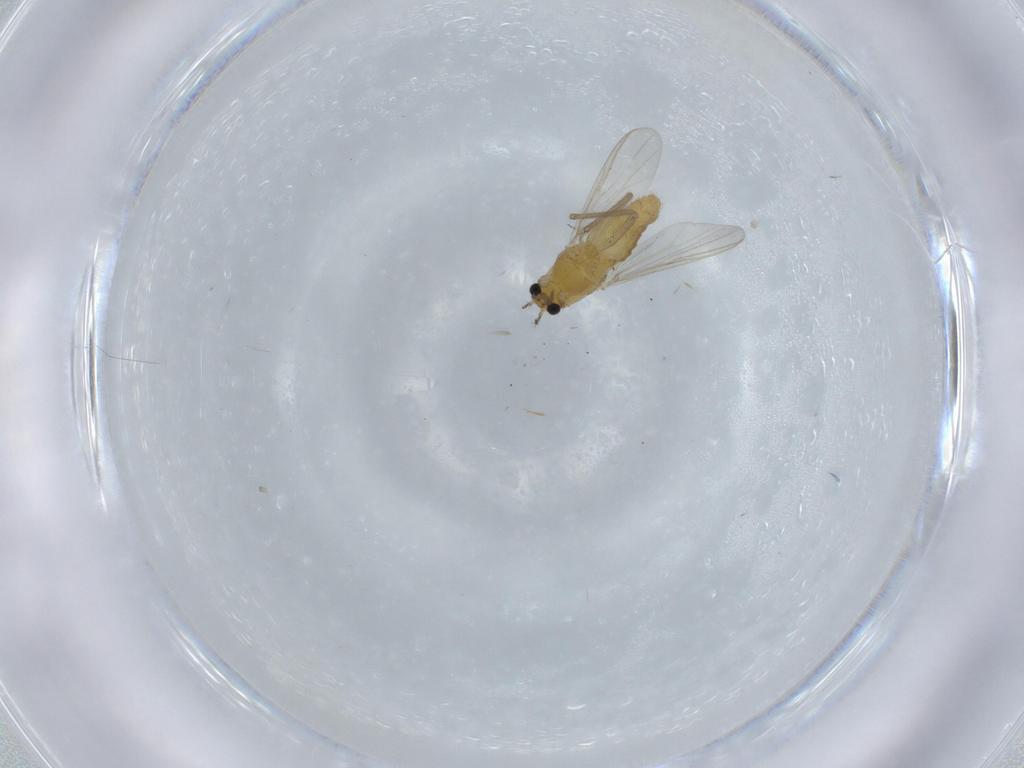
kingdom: Animalia
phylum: Arthropoda
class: Insecta
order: Diptera
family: Chironomidae
